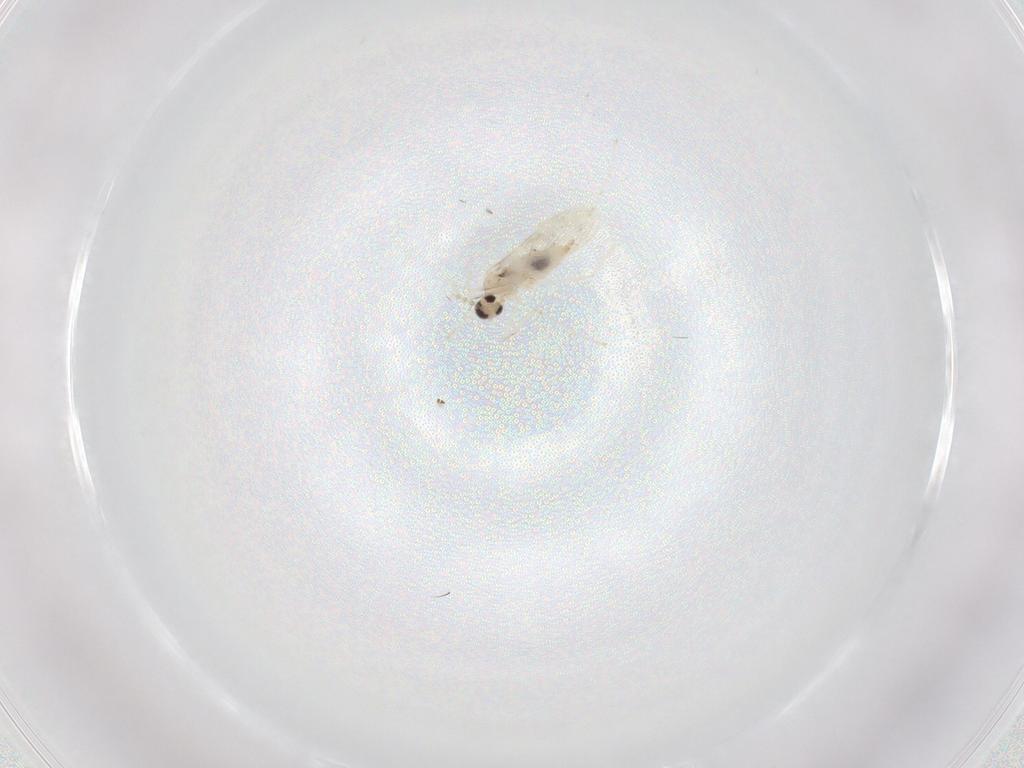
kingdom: Animalia
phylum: Arthropoda
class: Insecta
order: Diptera
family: Cecidomyiidae
